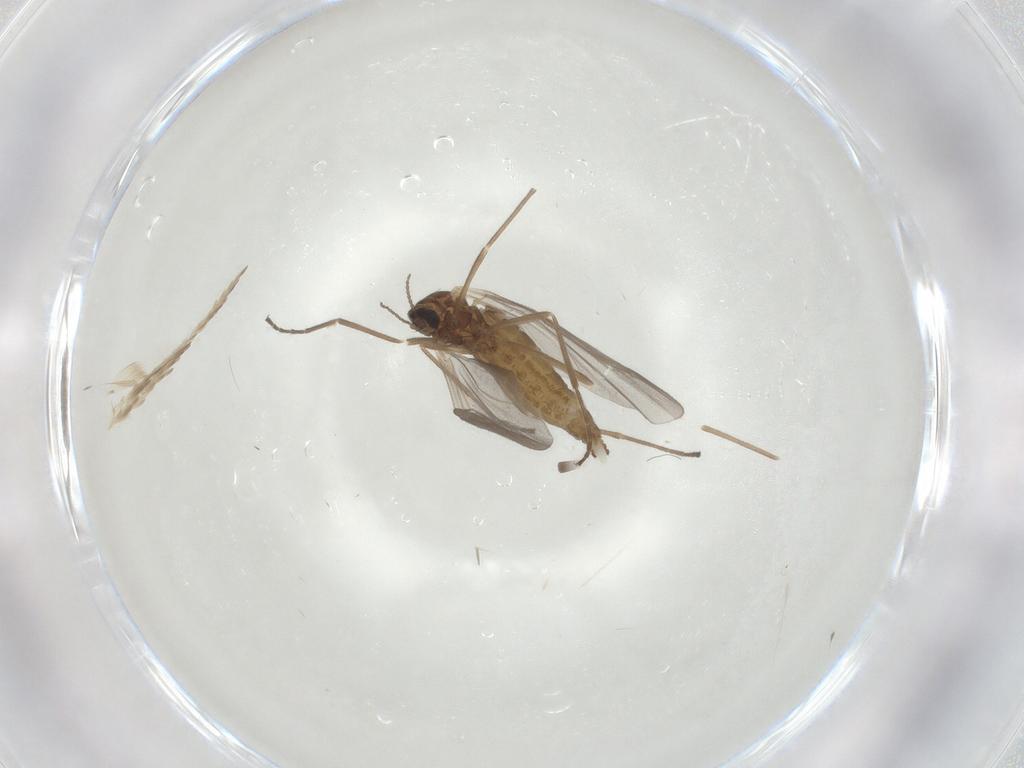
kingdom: Animalia
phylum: Arthropoda
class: Insecta
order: Diptera
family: Cecidomyiidae
